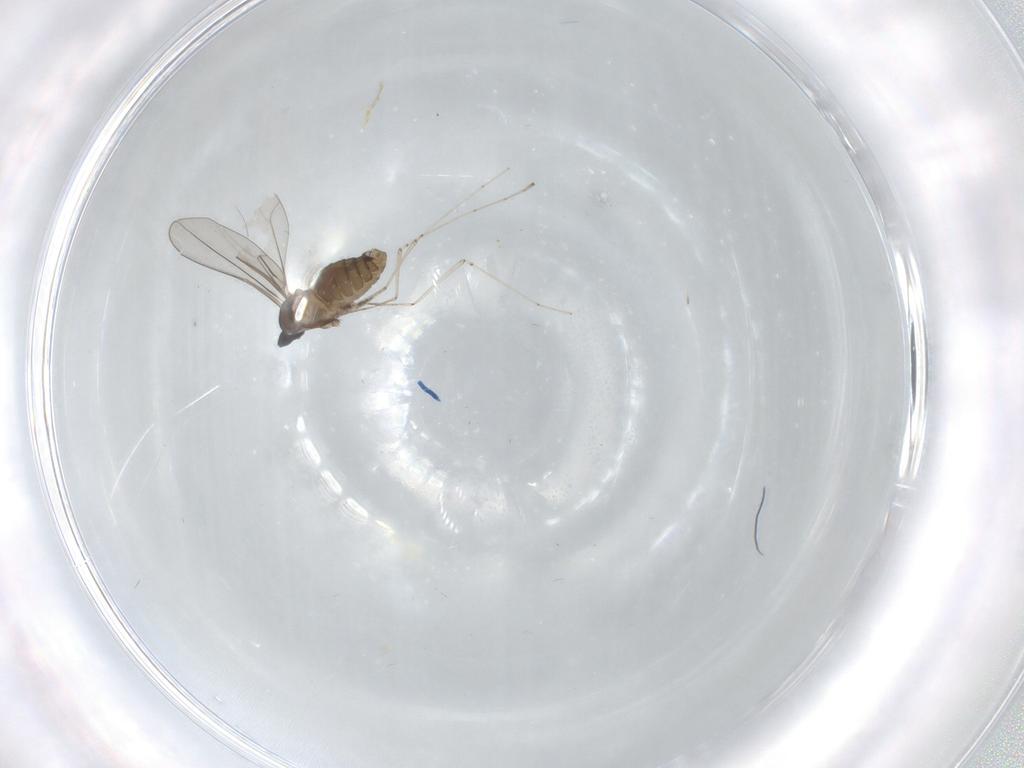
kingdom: Animalia
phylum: Arthropoda
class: Insecta
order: Diptera
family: Cecidomyiidae
